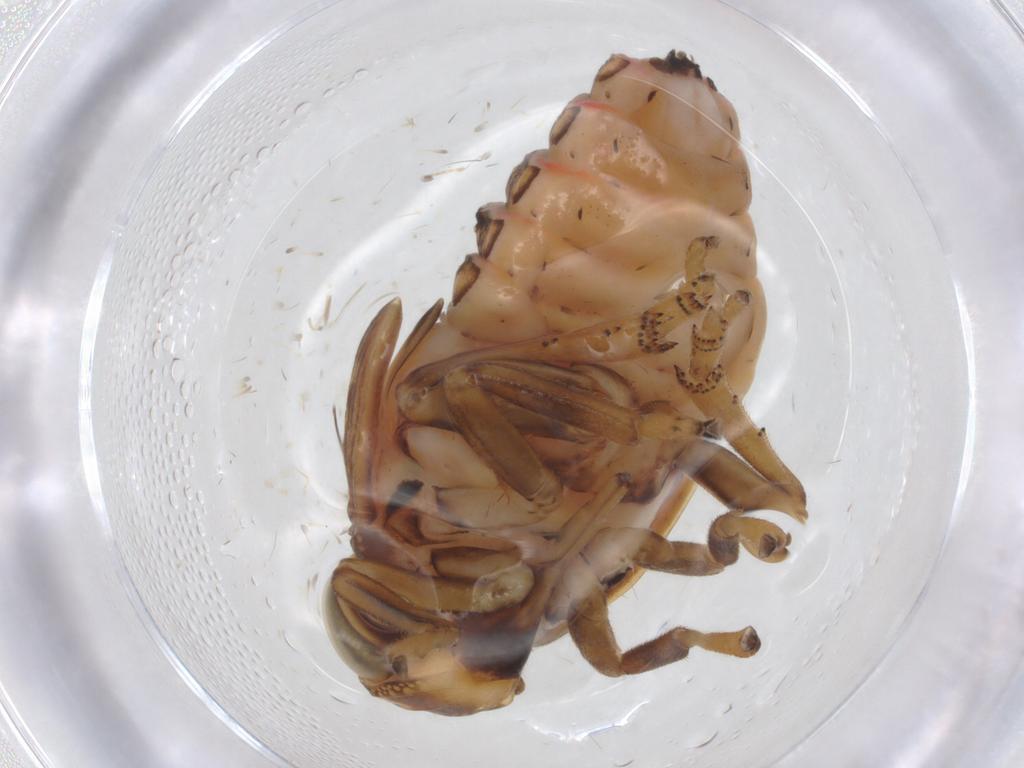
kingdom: Animalia
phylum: Arthropoda
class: Insecta
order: Hemiptera
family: Issidae
